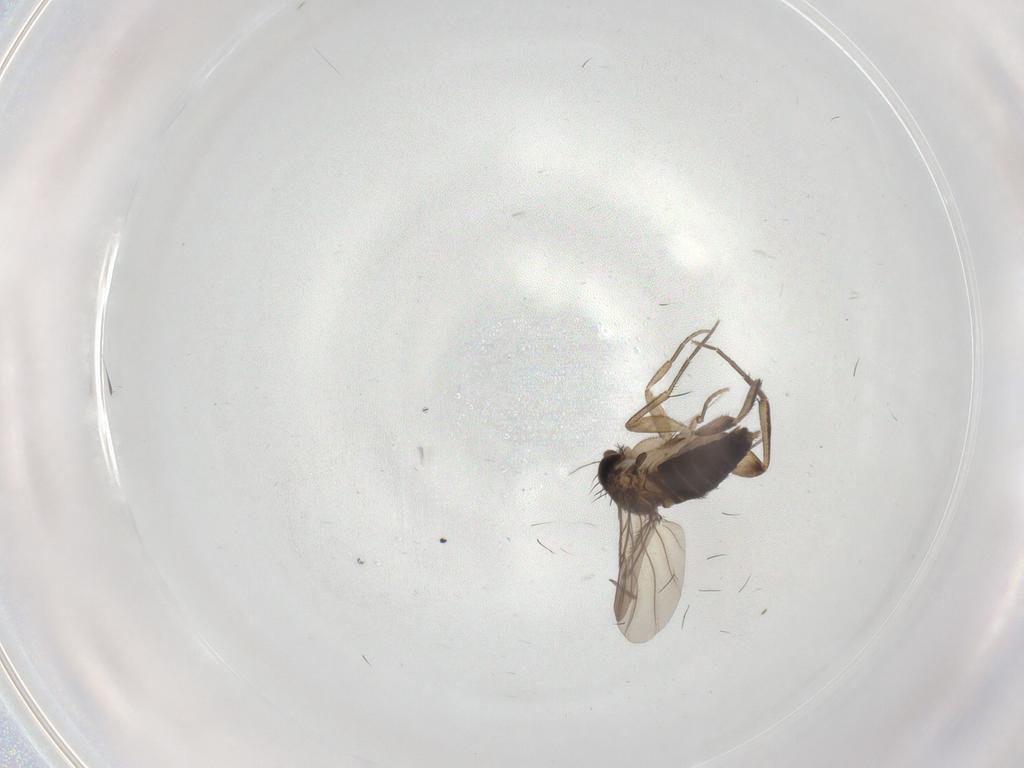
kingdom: Animalia
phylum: Arthropoda
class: Insecta
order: Diptera
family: Phoridae
